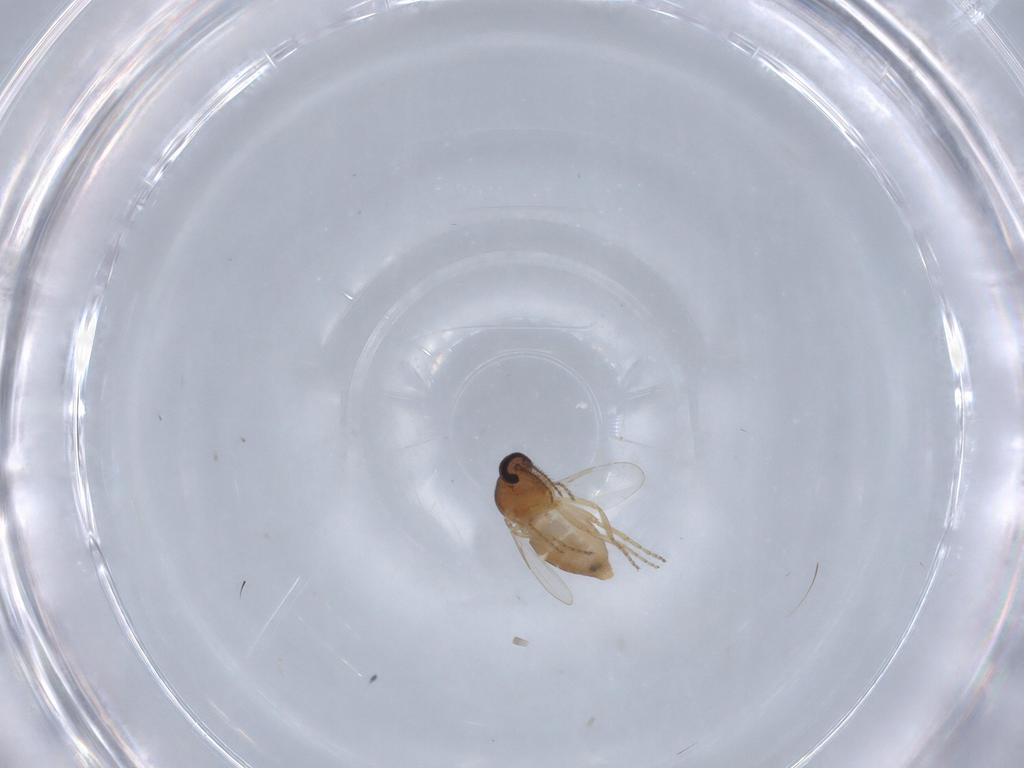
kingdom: Animalia
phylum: Arthropoda
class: Insecta
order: Diptera
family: Ceratopogonidae
